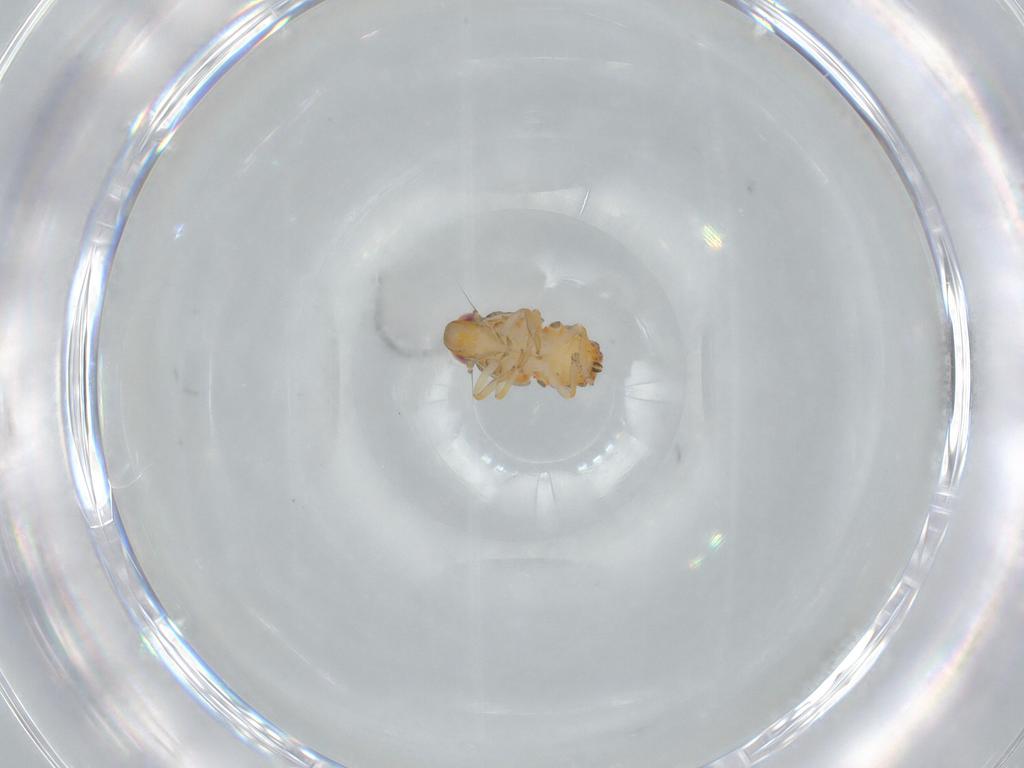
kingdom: Animalia
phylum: Arthropoda
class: Insecta
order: Hemiptera
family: Issidae
